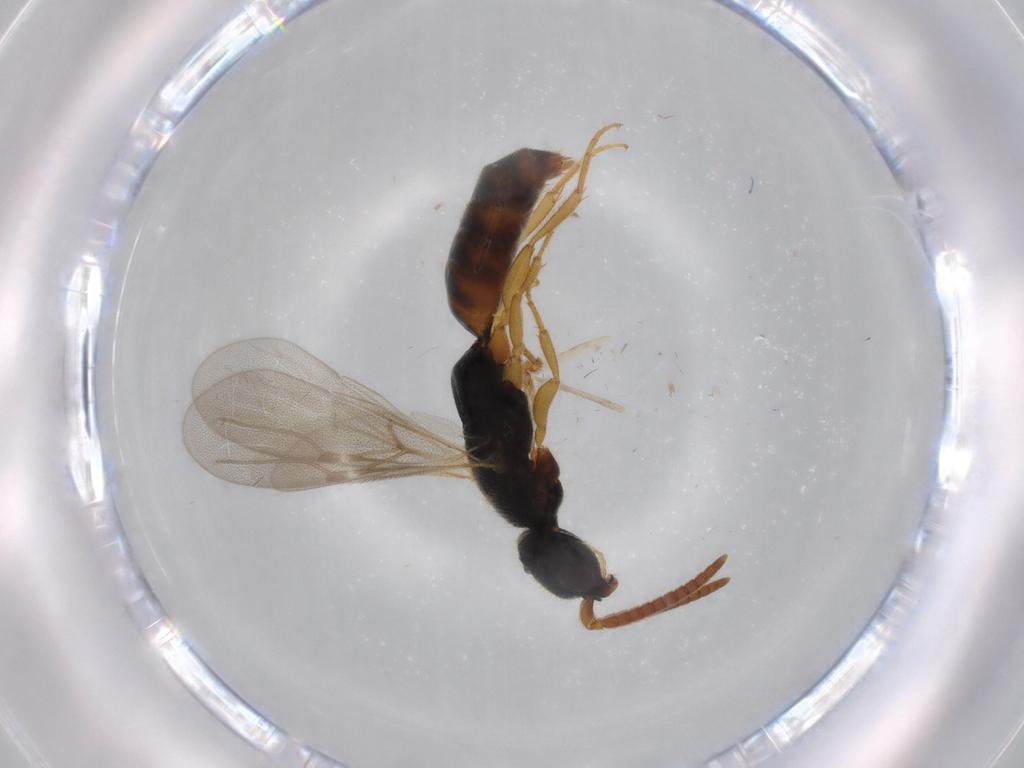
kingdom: Animalia
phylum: Arthropoda
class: Insecta
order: Hymenoptera
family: Bethylidae
